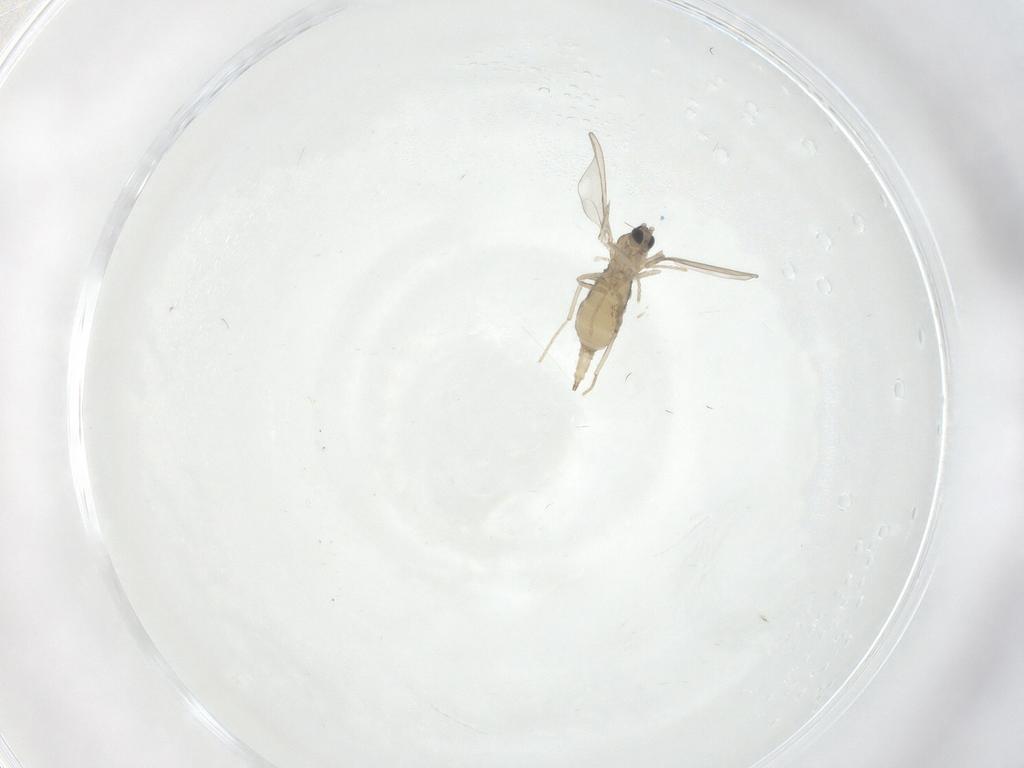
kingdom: Animalia
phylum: Arthropoda
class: Insecta
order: Diptera
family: Cecidomyiidae
